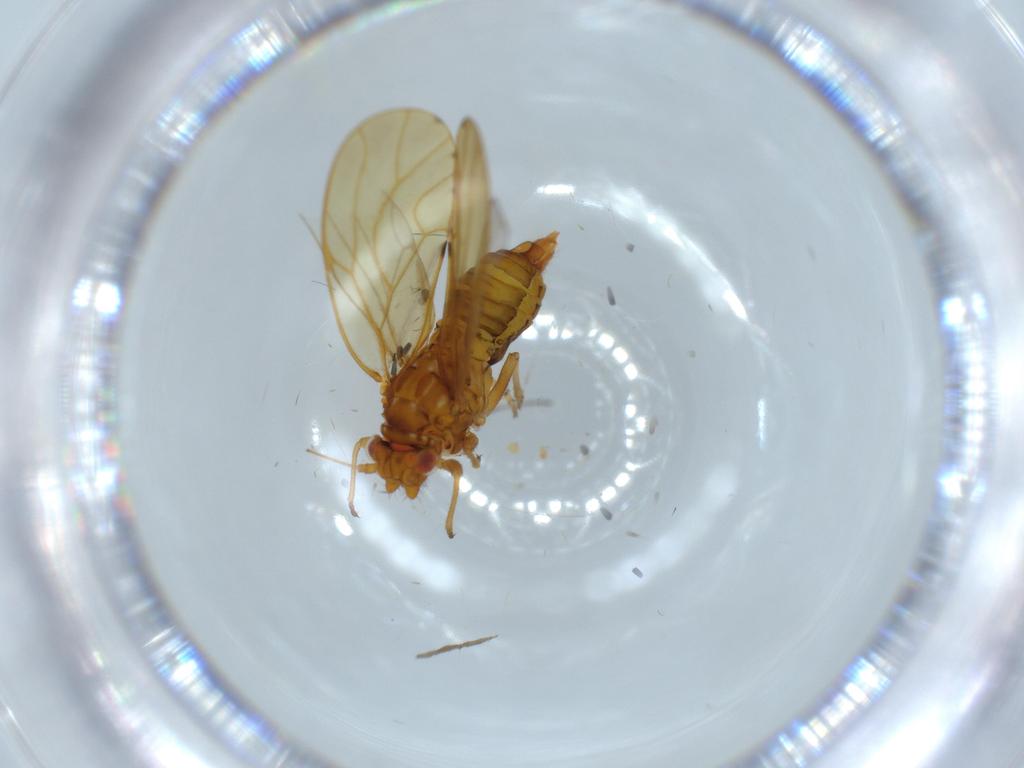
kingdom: Animalia
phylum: Arthropoda
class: Insecta
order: Hemiptera
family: Psylloidea_incertae_sedis
